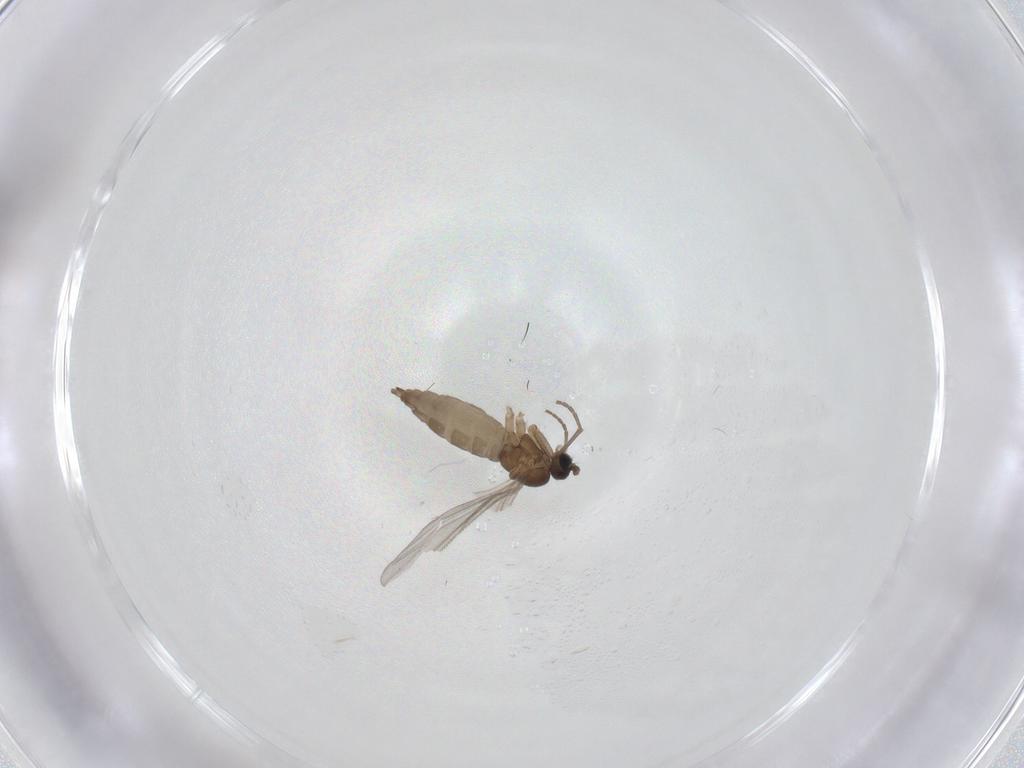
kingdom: Animalia
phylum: Arthropoda
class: Insecta
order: Diptera
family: Sciaridae
